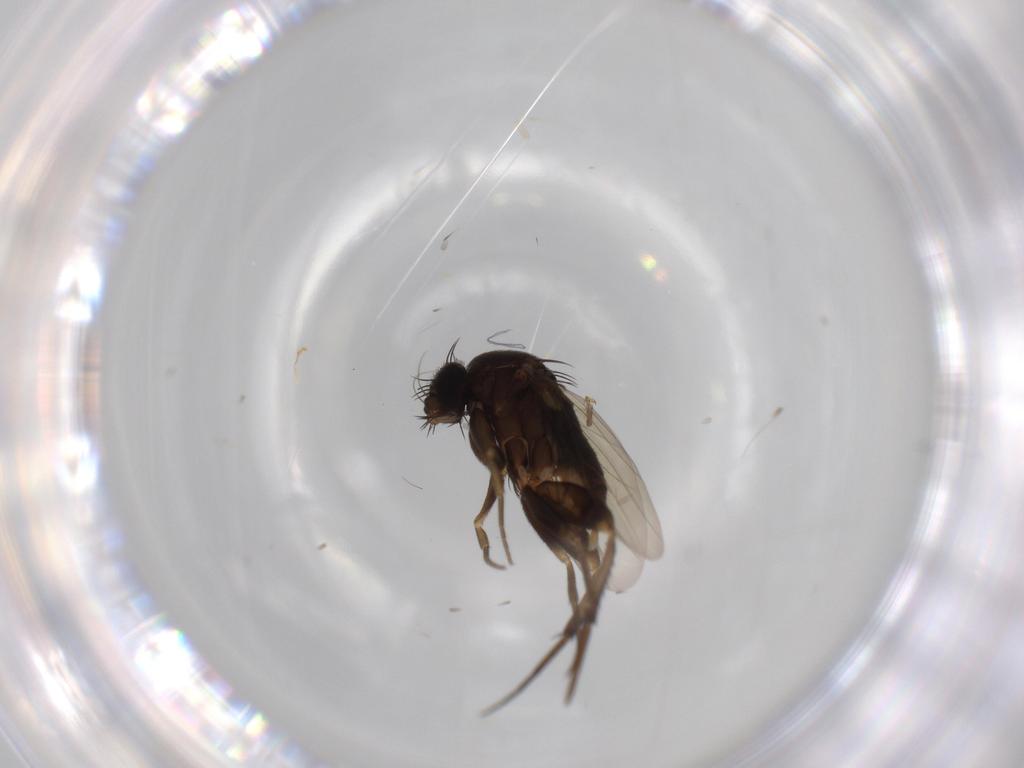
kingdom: Animalia
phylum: Arthropoda
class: Insecta
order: Diptera
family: Phoridae
